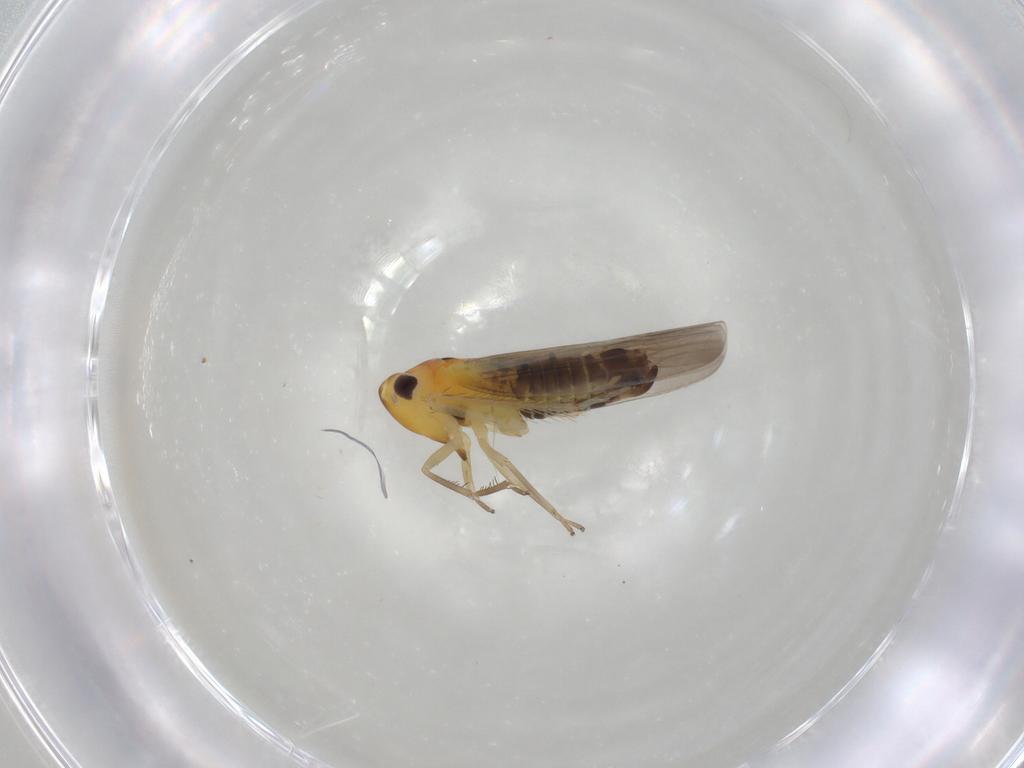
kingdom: Animalia
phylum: Arthropoda
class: Insecta
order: Hemiptera
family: Cicadellidae
